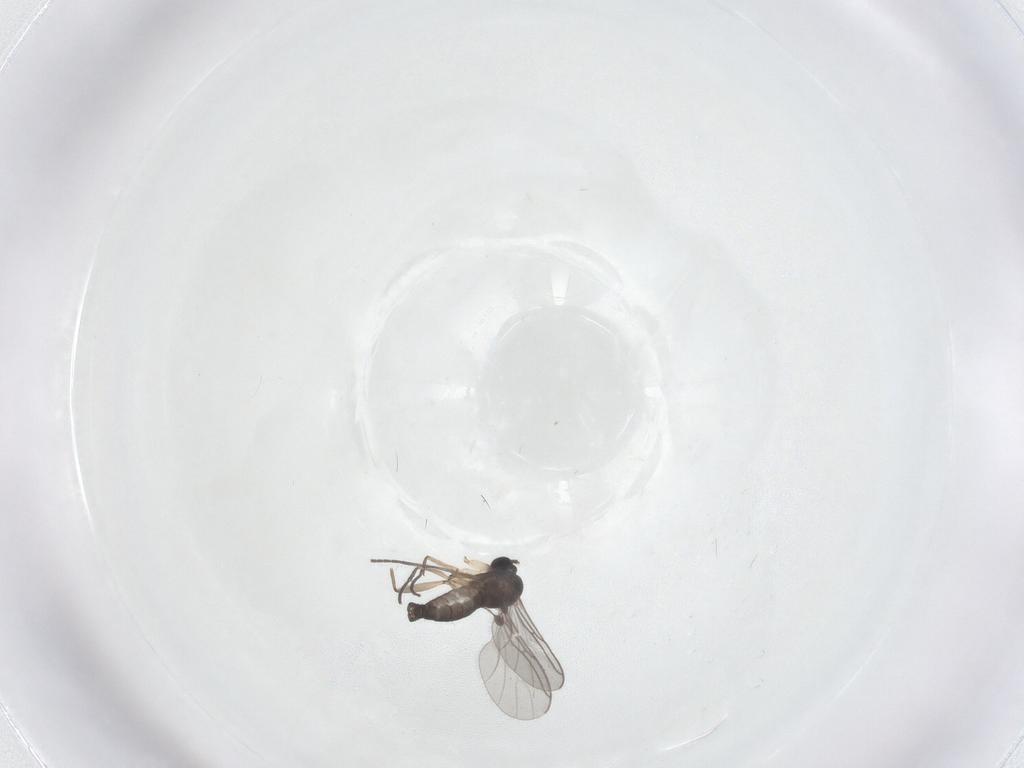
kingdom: Animalia
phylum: Arthropoda
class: Insecta
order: Diptera
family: Sciaridae
